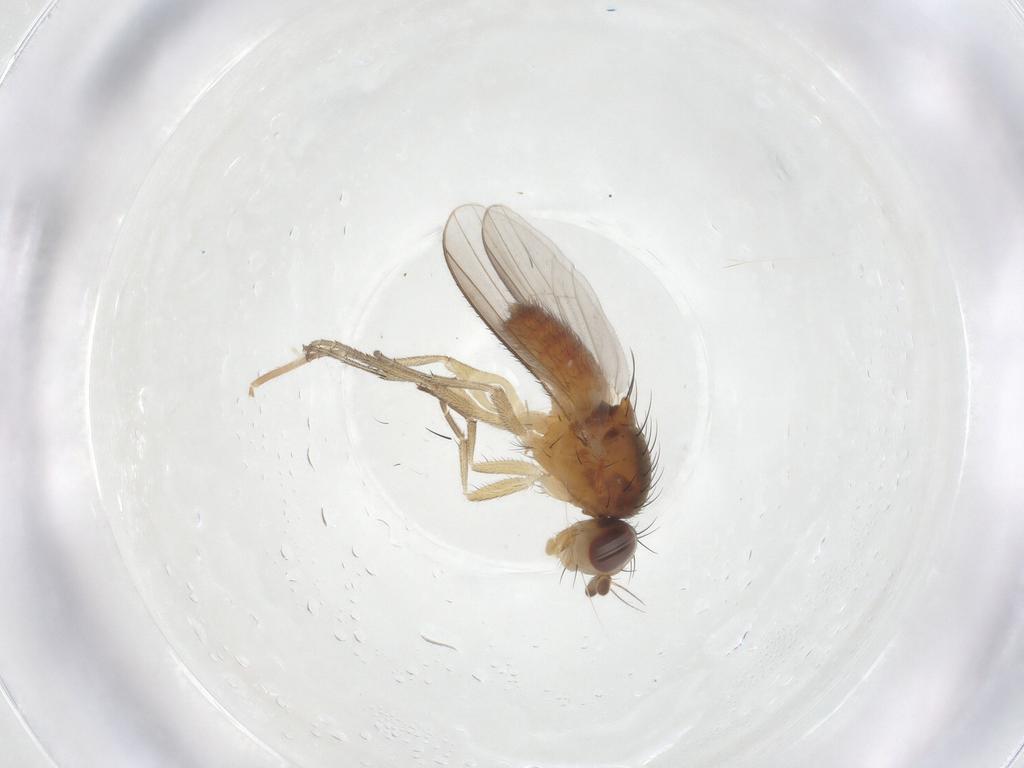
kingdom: Animalia
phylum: Arthropoda
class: Insecta
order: Diptera
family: Heleomyzidae
